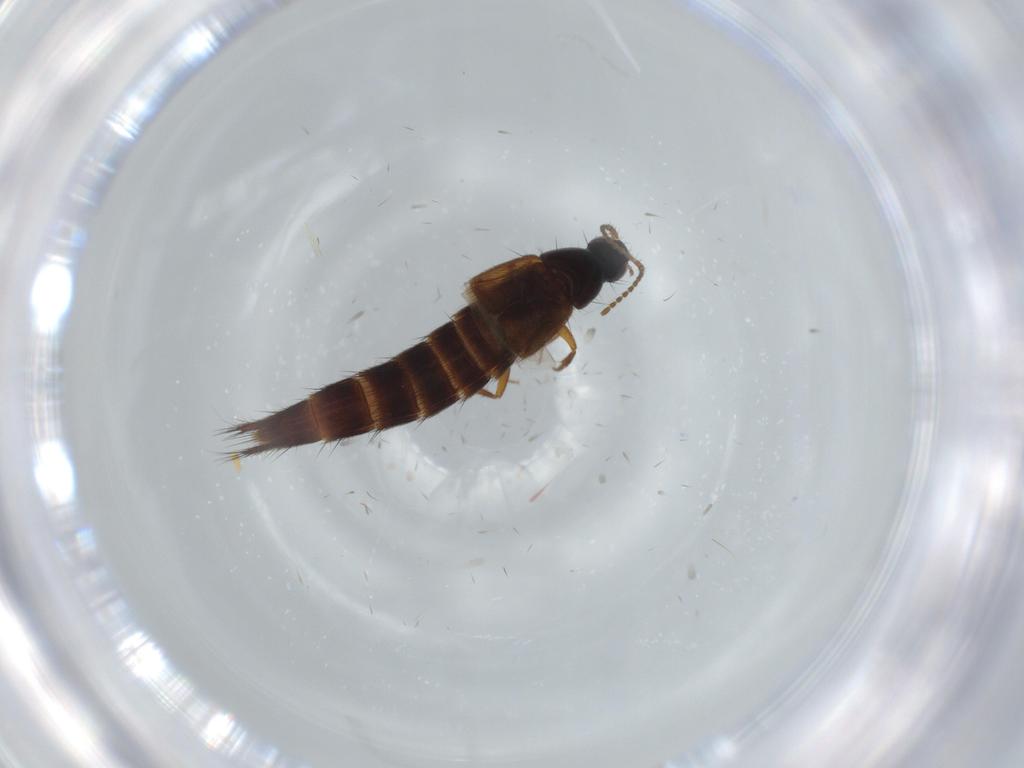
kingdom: Animalia
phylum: Arthropoda
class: Insecta
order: Coleoptera
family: Staphylinidae
